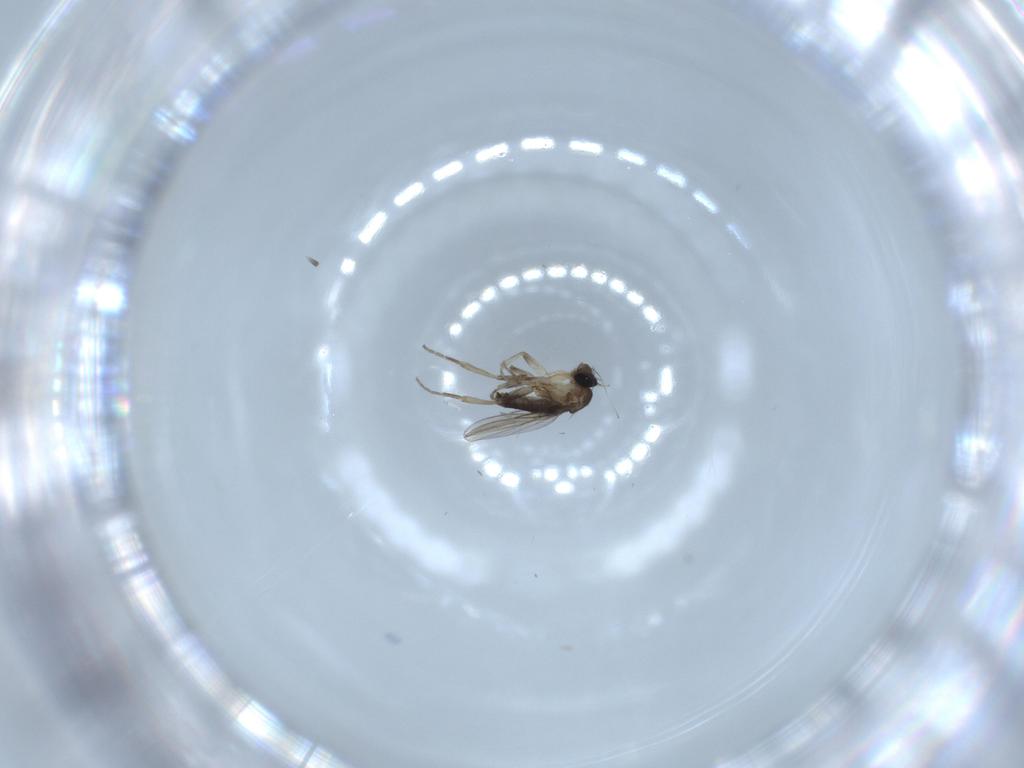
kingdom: Animalia
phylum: Arthropoda
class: Insecta
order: Diptera
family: Phoridae
